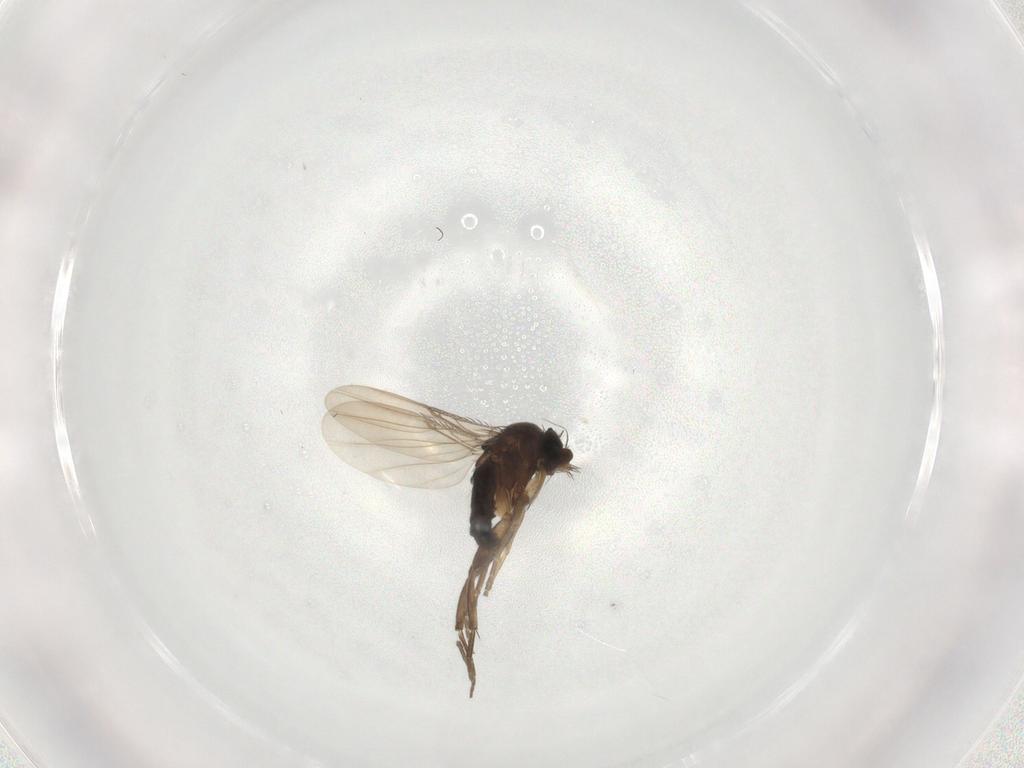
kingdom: Animalia
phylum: Arthropoda
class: Insecta
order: Diptera
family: Phoridae
